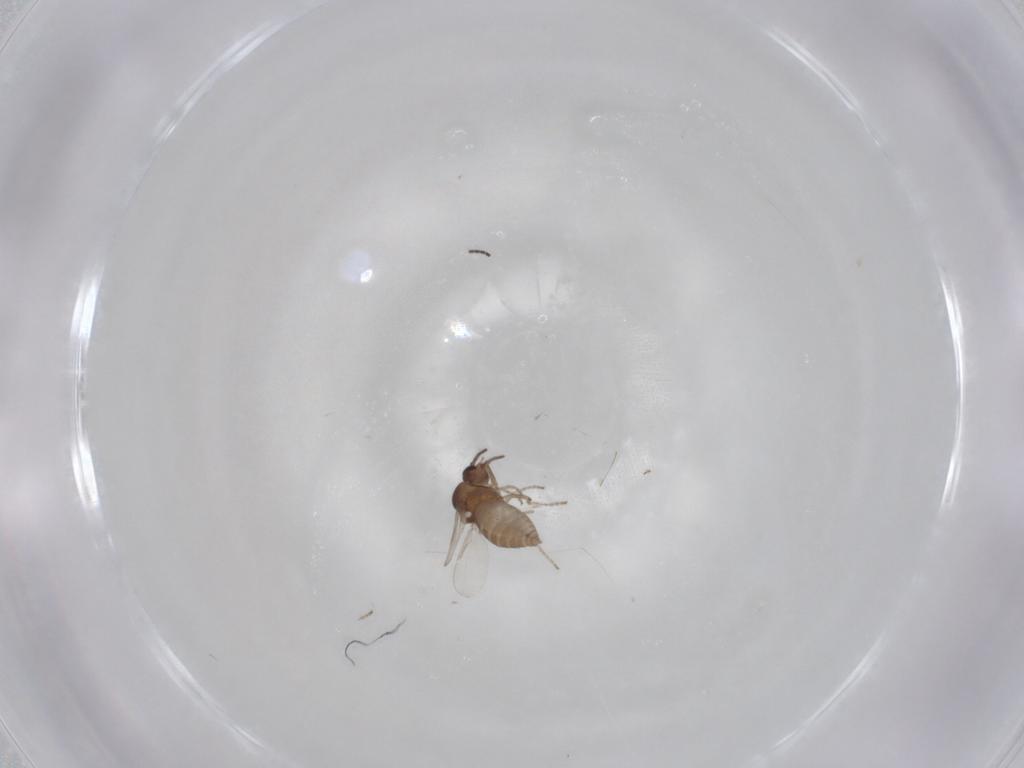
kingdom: Animalia
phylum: Arthropoda
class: Insecta
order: Diptera
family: Ceratopogonidae
